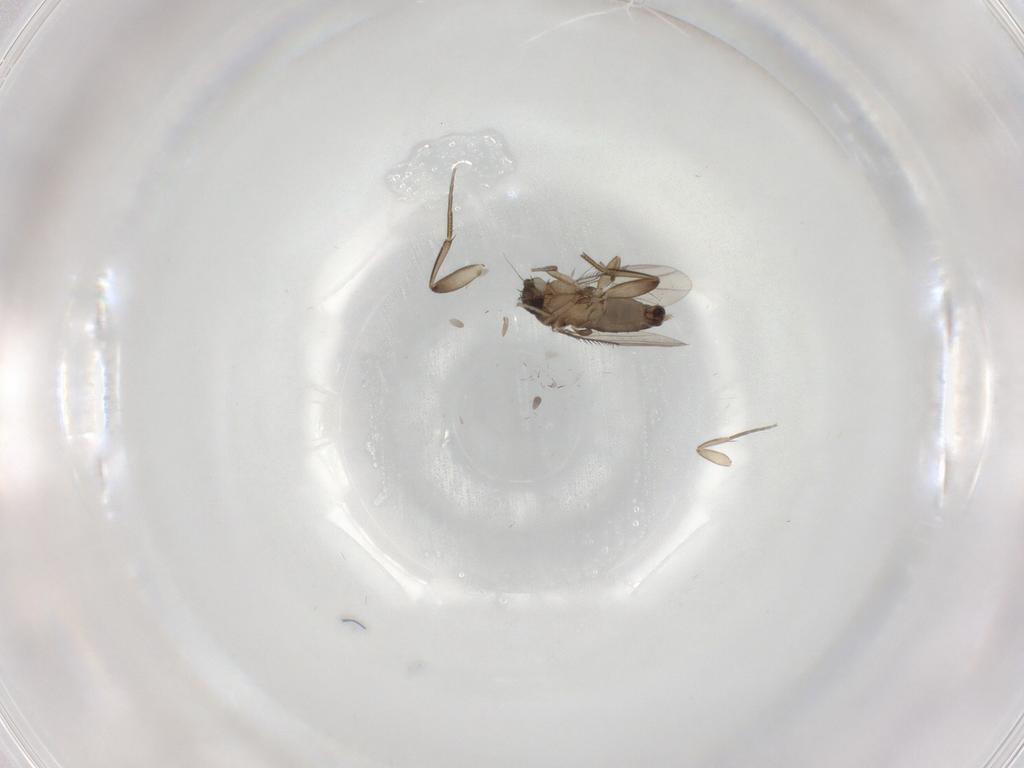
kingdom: Animalia
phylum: Arthropoda
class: Insecta
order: Diptera
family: Phoridae
